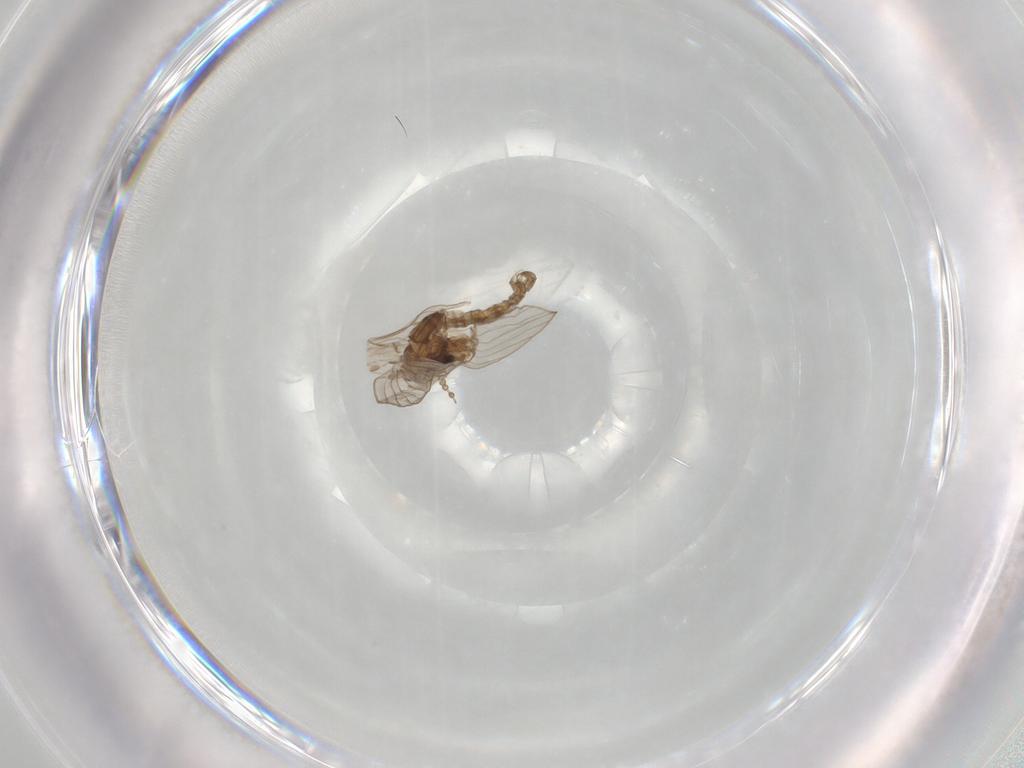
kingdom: Animalia
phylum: Arthropoda
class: Insecta
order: Diptera
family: Psychodidae
